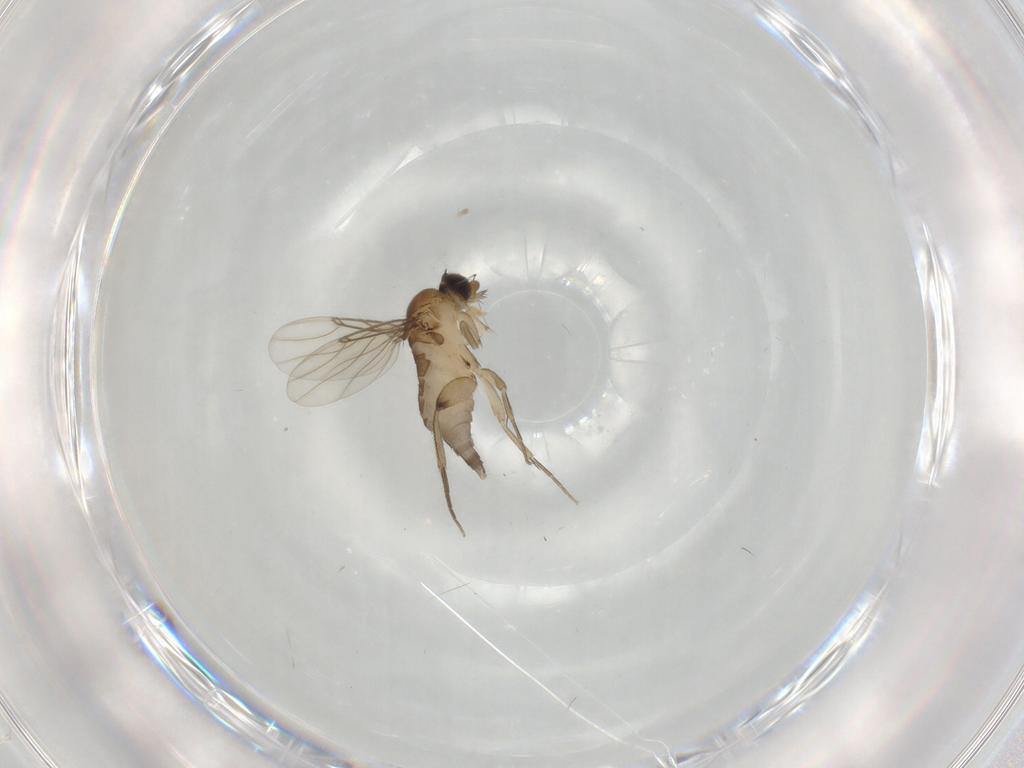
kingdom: Animalia
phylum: Arthropoda
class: Insecta
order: Diptera
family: Phoridae
